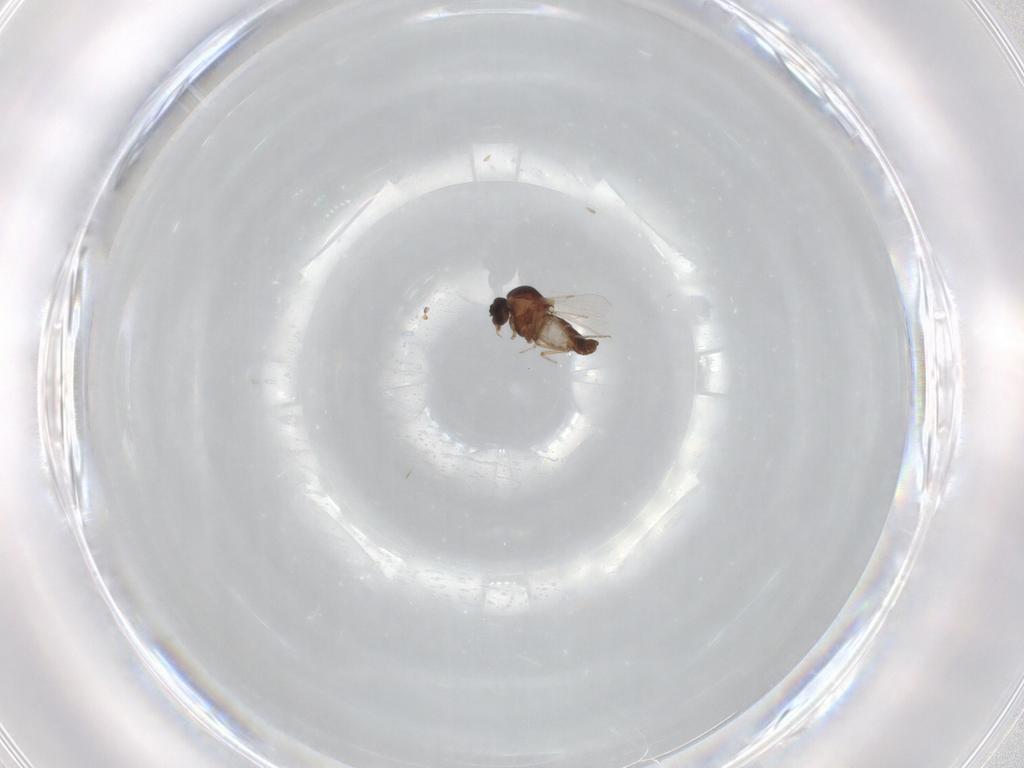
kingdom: Animalia
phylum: Arthropoda
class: Insecta
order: Diptera
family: Ceratopogonidae
